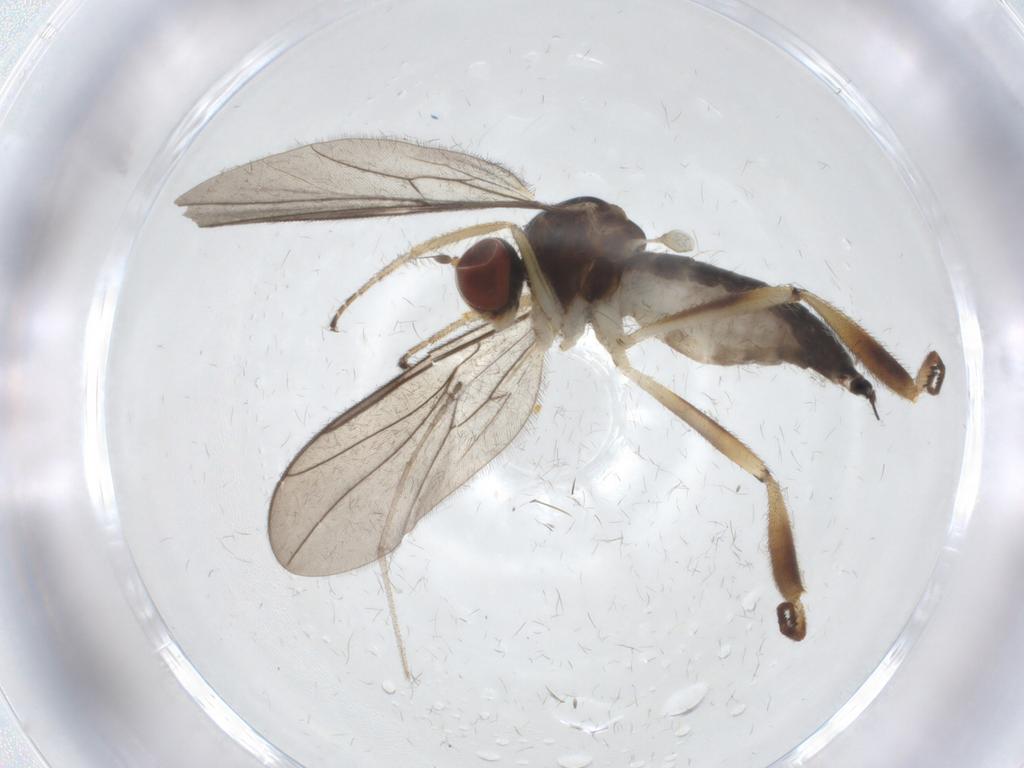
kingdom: Animalia
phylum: Arthropoda
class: Insecta
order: Diptera
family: Hybotidae
